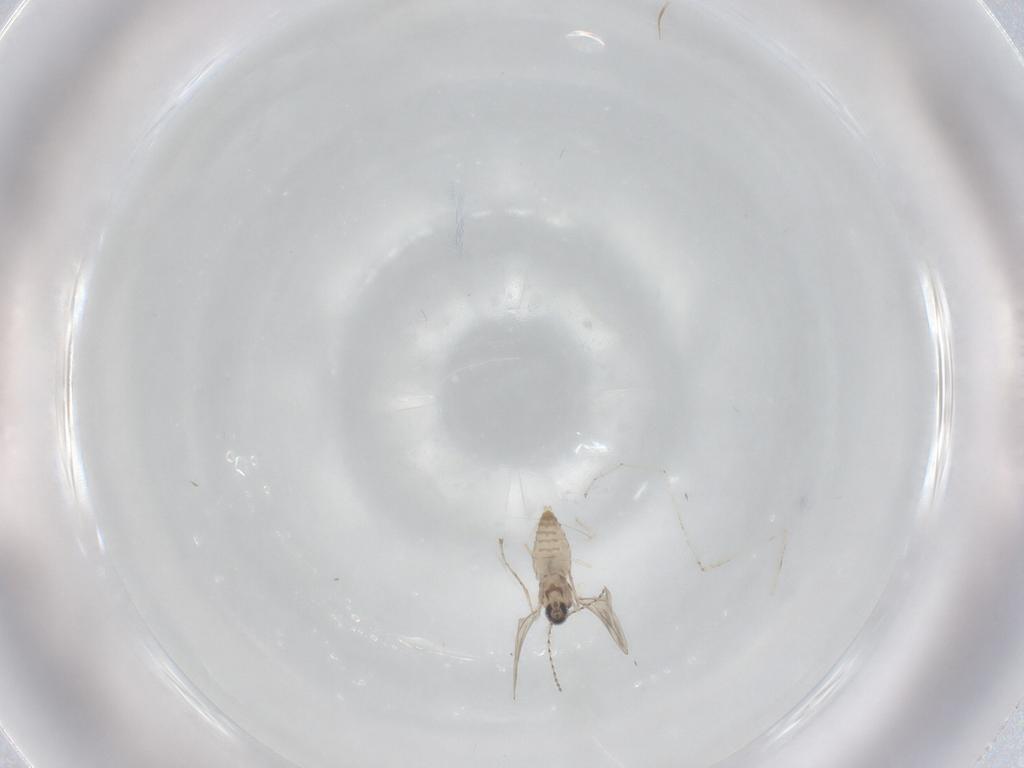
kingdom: Animalia
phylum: Arthropoda
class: Insecta
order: Diptera
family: Cecidomyiidae
